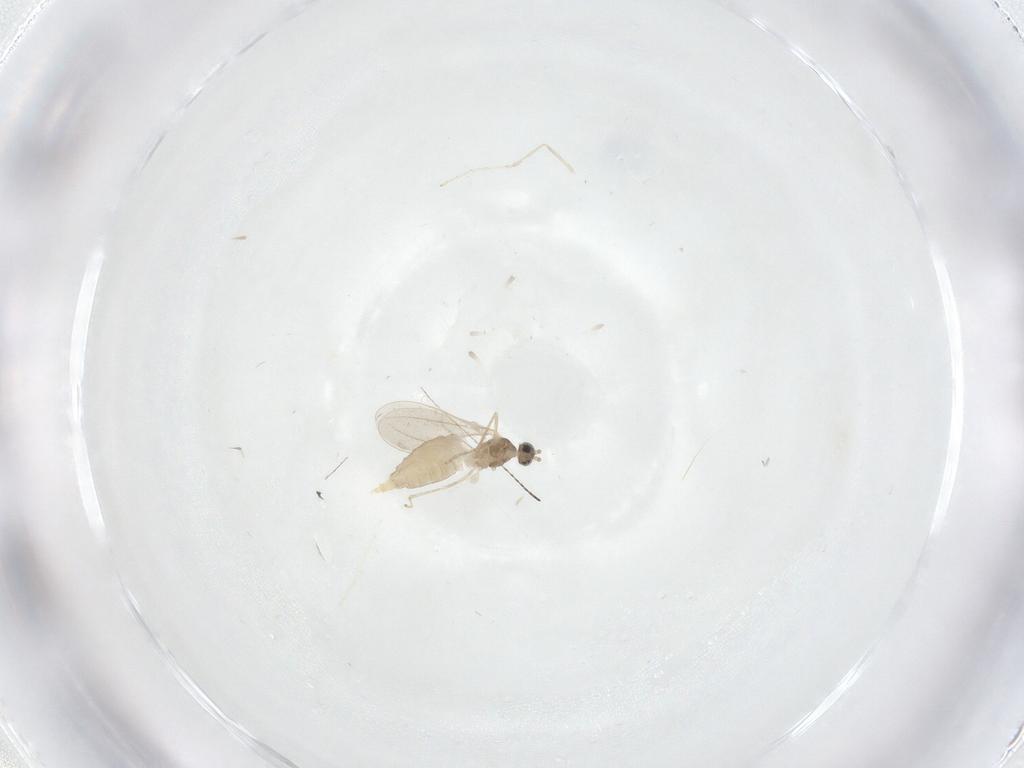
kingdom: Animalia
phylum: Arthropoda
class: Insecta
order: Diptera
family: Cecidomyiidae
